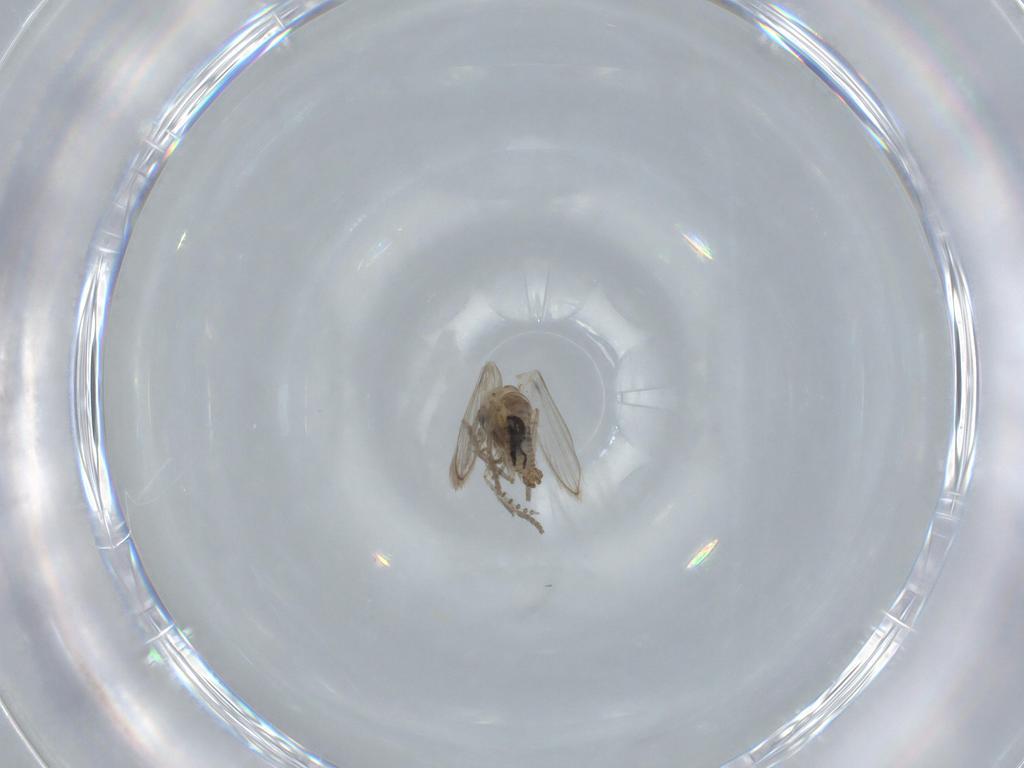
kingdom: Animalia
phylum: Arthropoda
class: Insecta
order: Diptera
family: Psychodidae
